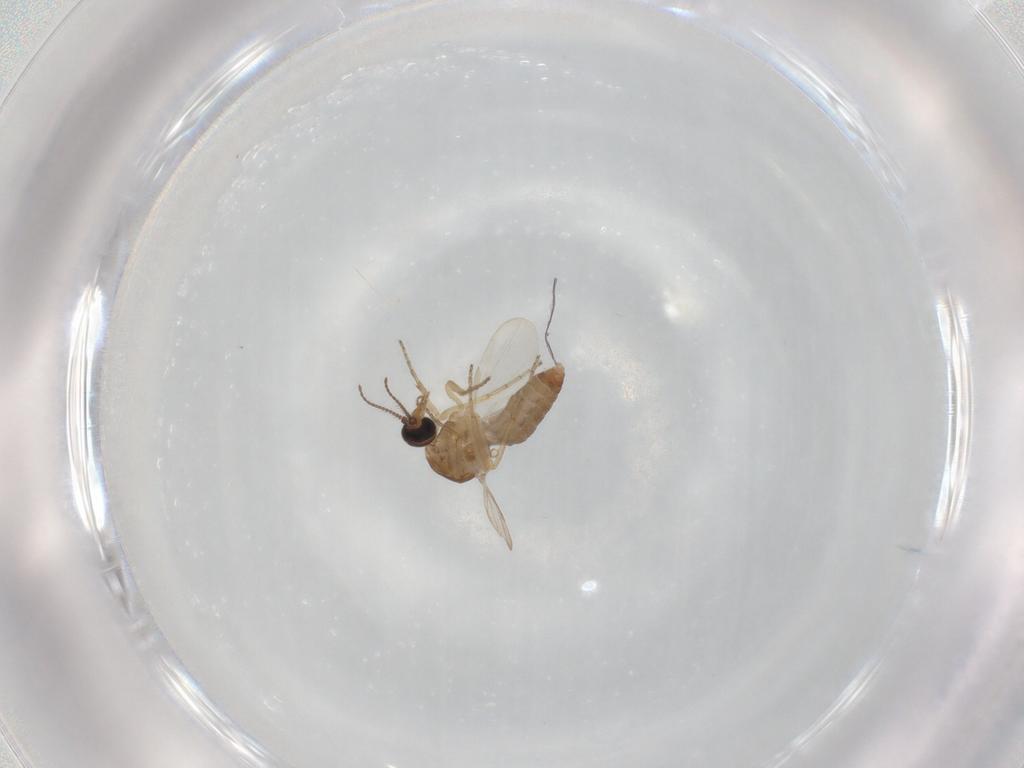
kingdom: Animalia
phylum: Arthropoda
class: Insecta
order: Diptera
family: Ceratopogonidae
